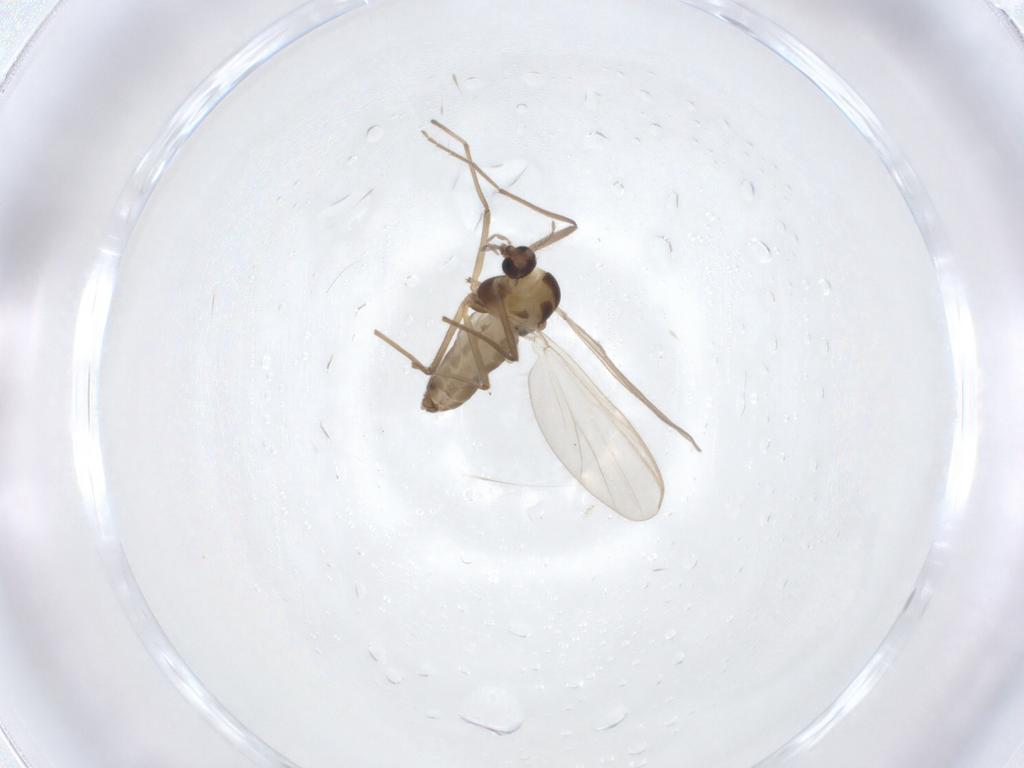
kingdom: Animalia
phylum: Arthropoda
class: Insecta
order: Diptera
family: Chironomidae
